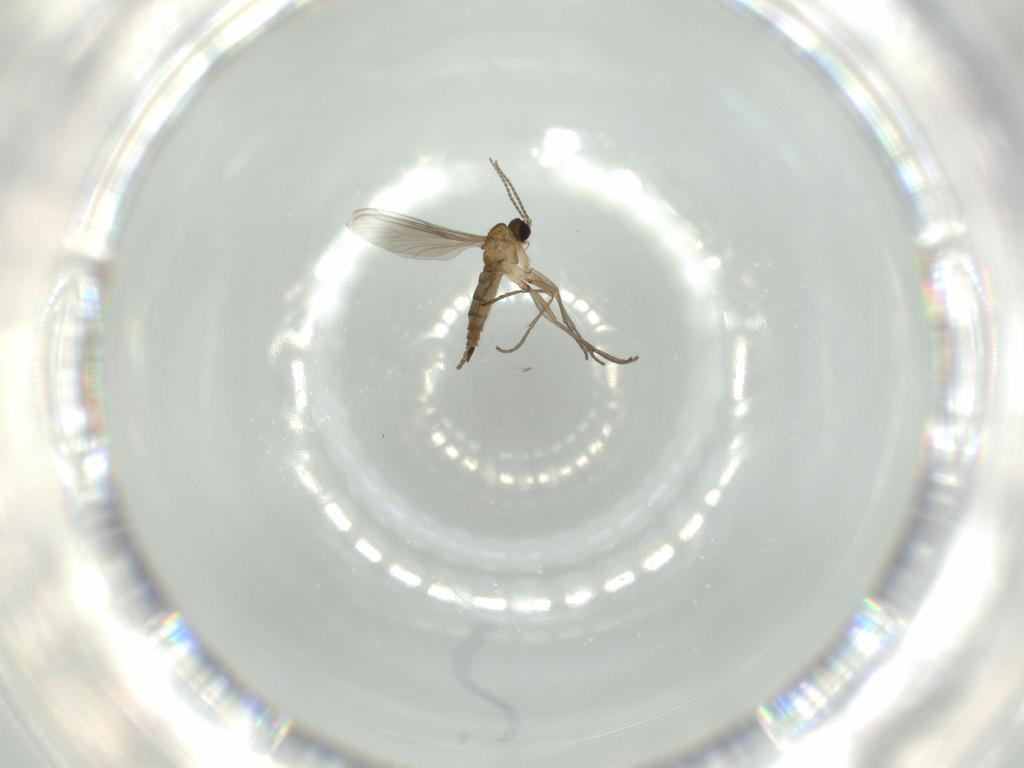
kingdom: Animalia
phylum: Arthropoda
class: Insecta
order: Diptera
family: Sciaridae
